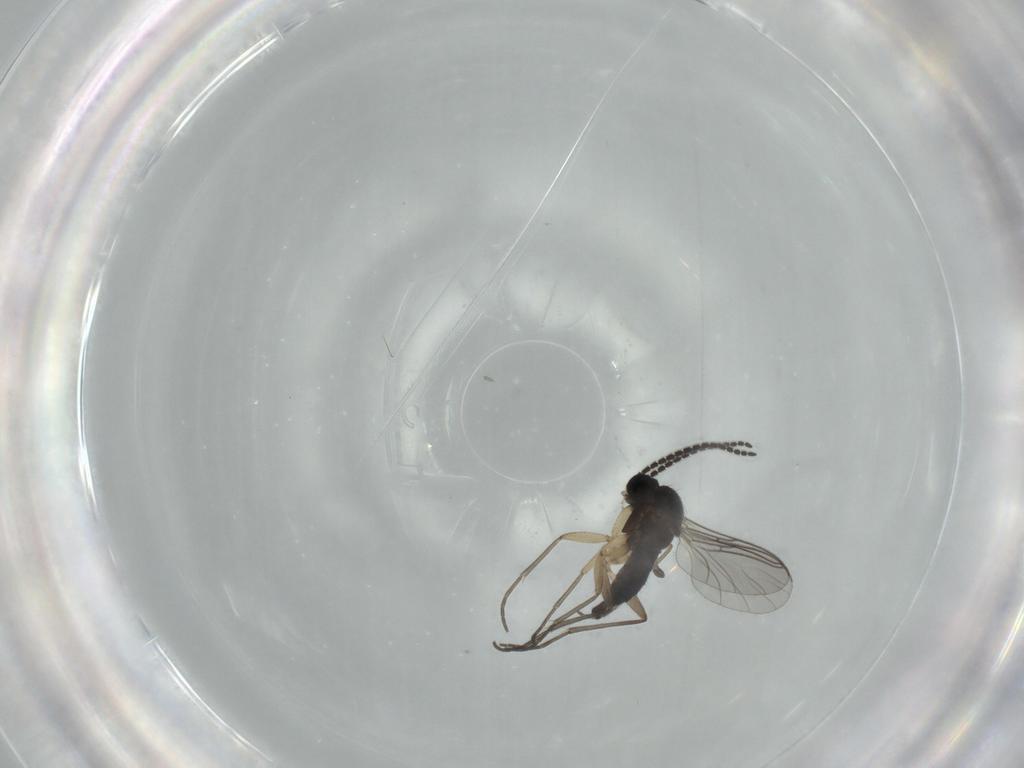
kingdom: Animalia
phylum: Arthropoda
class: Insecta
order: Diptera
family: Sciaridae
